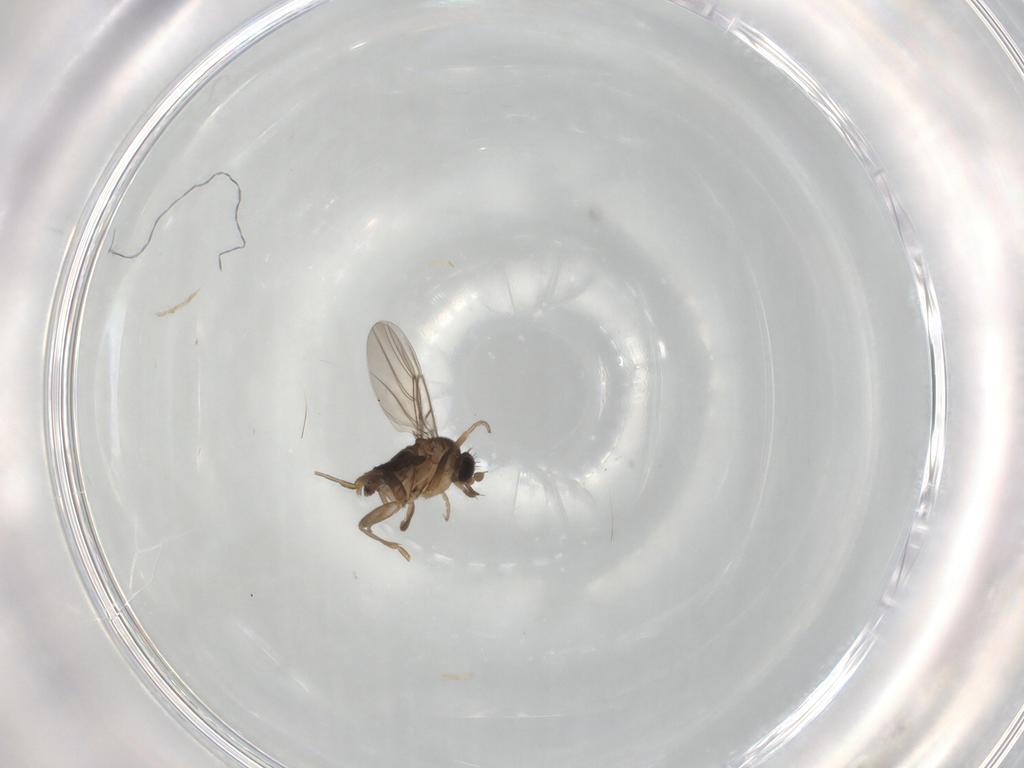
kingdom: Animalia
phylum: Arthropoda
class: Insecta
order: Diptera
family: Phoridae
